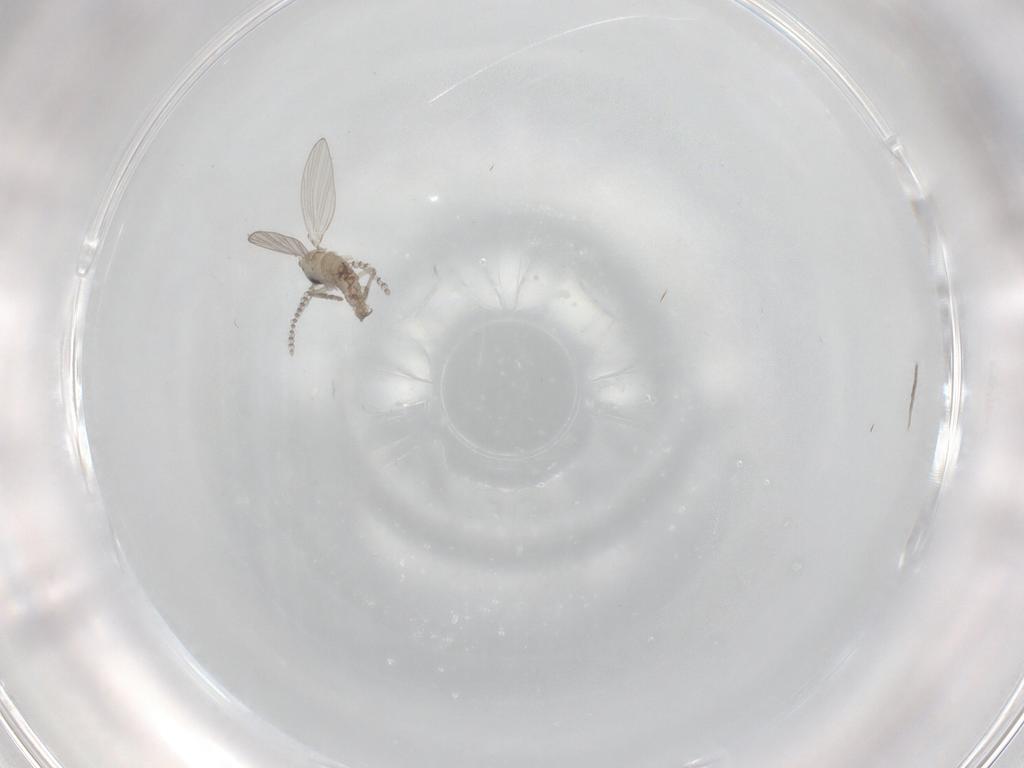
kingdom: Animalia
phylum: Arthropoda
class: Insecta
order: Diptera
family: Psychodidae
